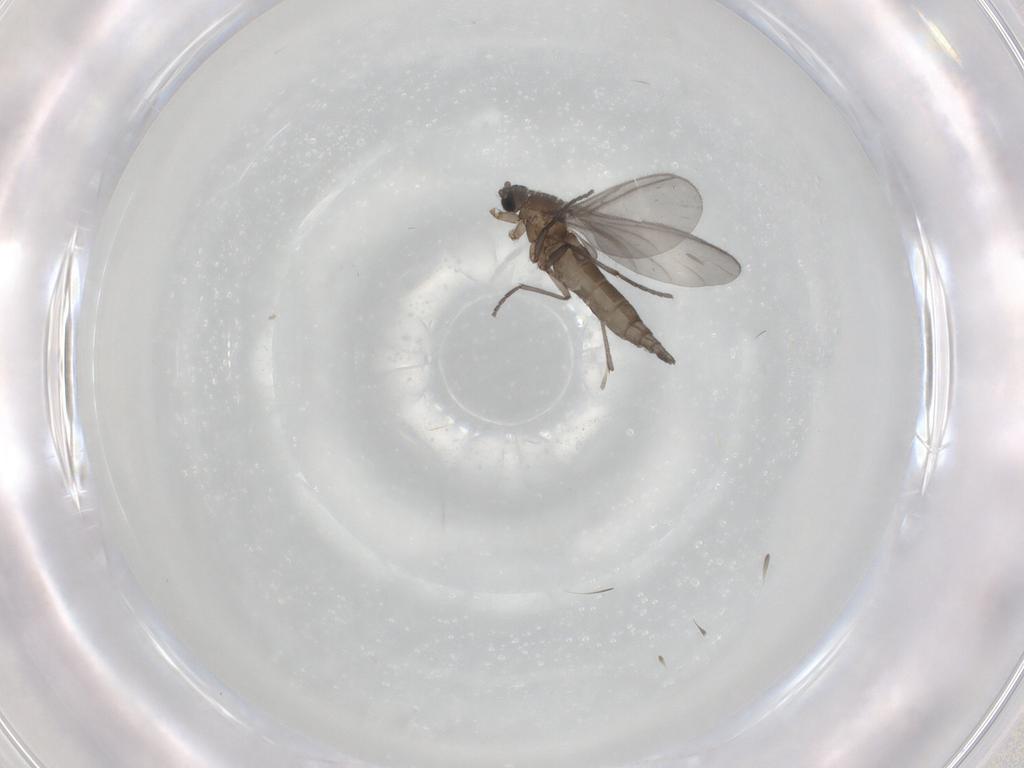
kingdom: Animalia
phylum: Arthropoda
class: Insecta
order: Diptera
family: Sciaridae
